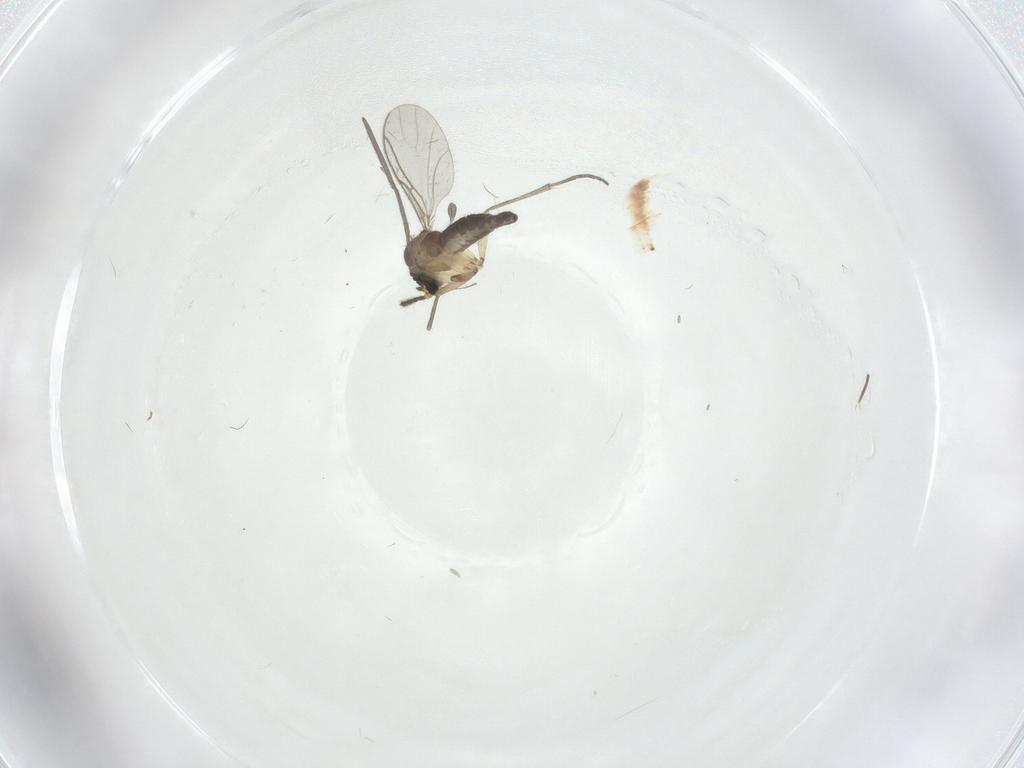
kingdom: Animalia
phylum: Arthropoda
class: Insecta
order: Diptera
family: Sciaridae
